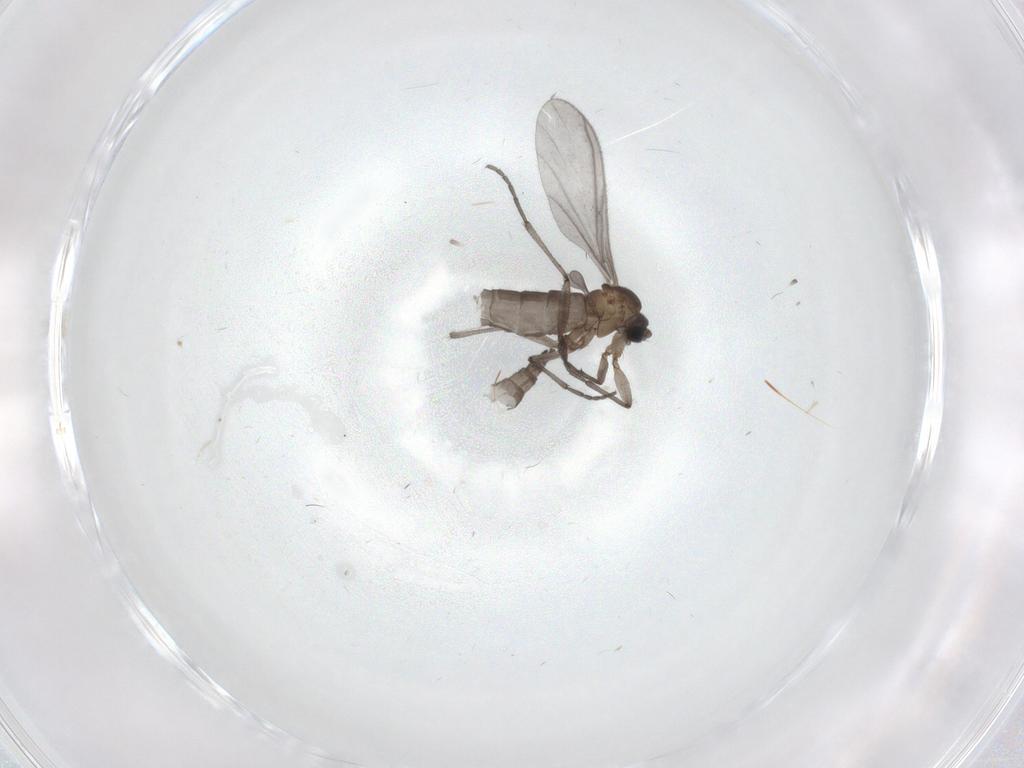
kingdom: Animalia
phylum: Arthropoda
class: Insecta
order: Diptera
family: Sciaridae
